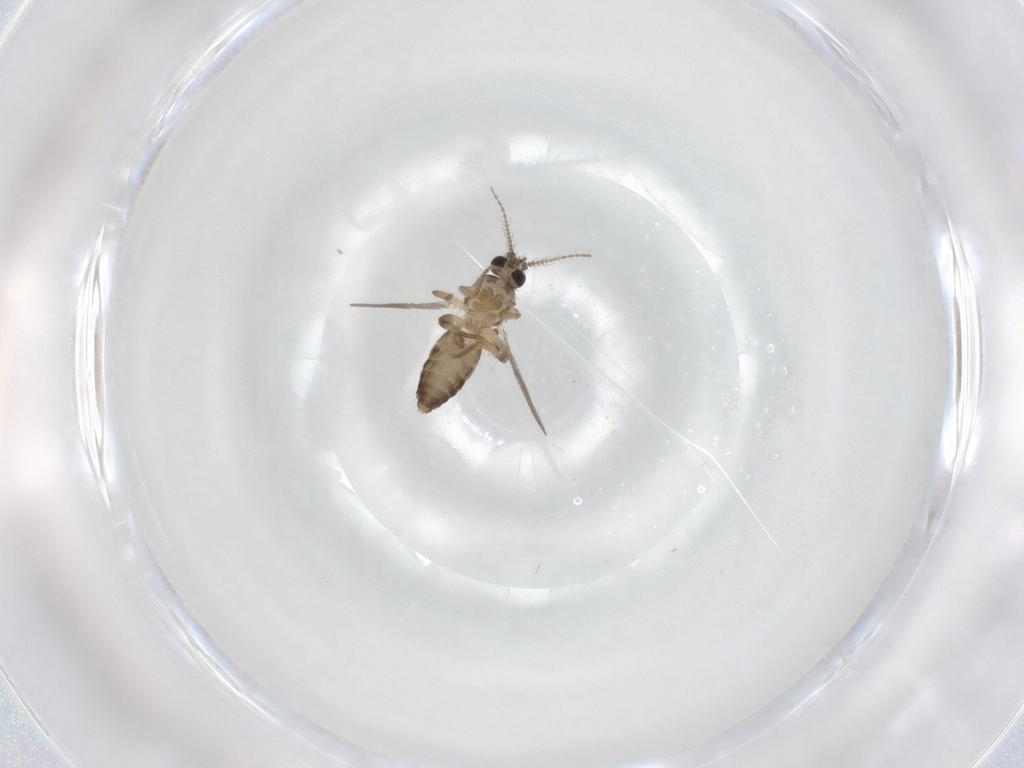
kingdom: Animalia
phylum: Arthropoda
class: Insecta
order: Diptera
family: Ceratopogonidae
